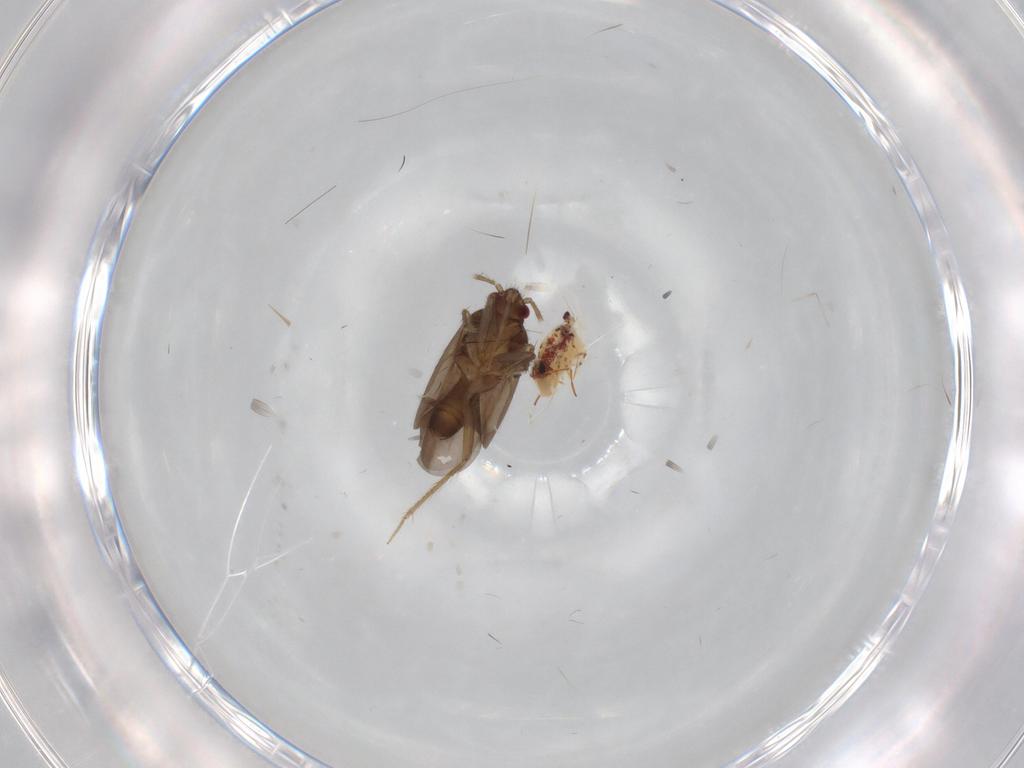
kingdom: Animalia
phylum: Arthropoda
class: Insecta
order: Hemiptera
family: Ceratocombidae
